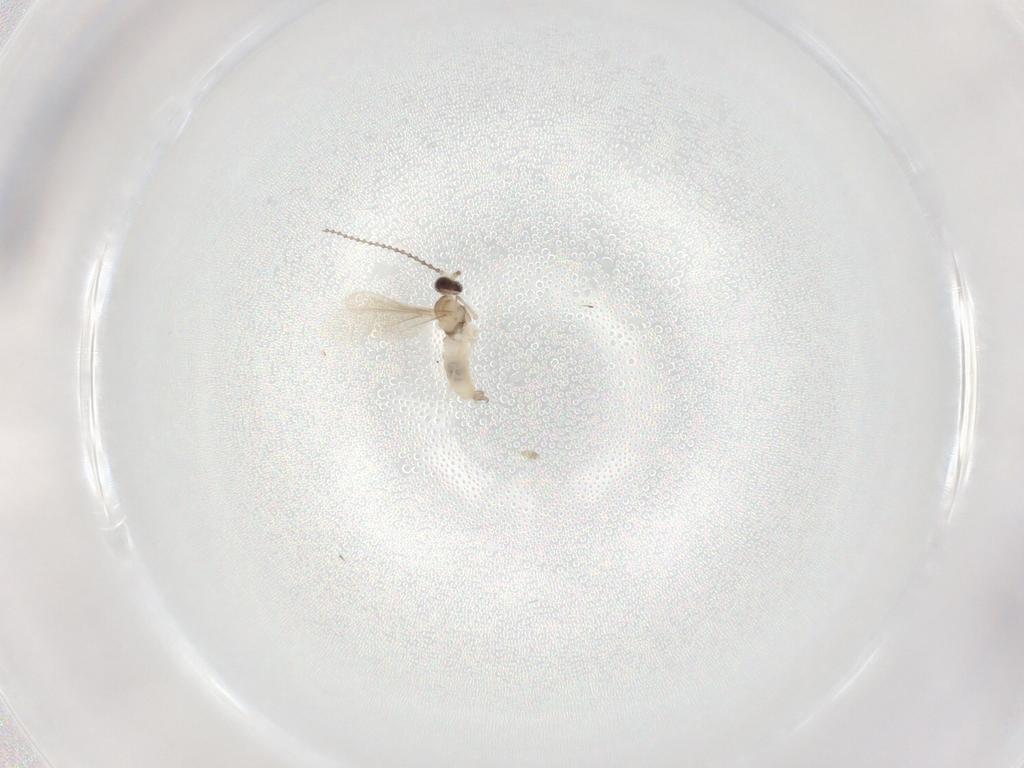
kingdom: Animalia
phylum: Arthropoda
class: Insecta
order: Diptera
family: Cecidomyiidae
